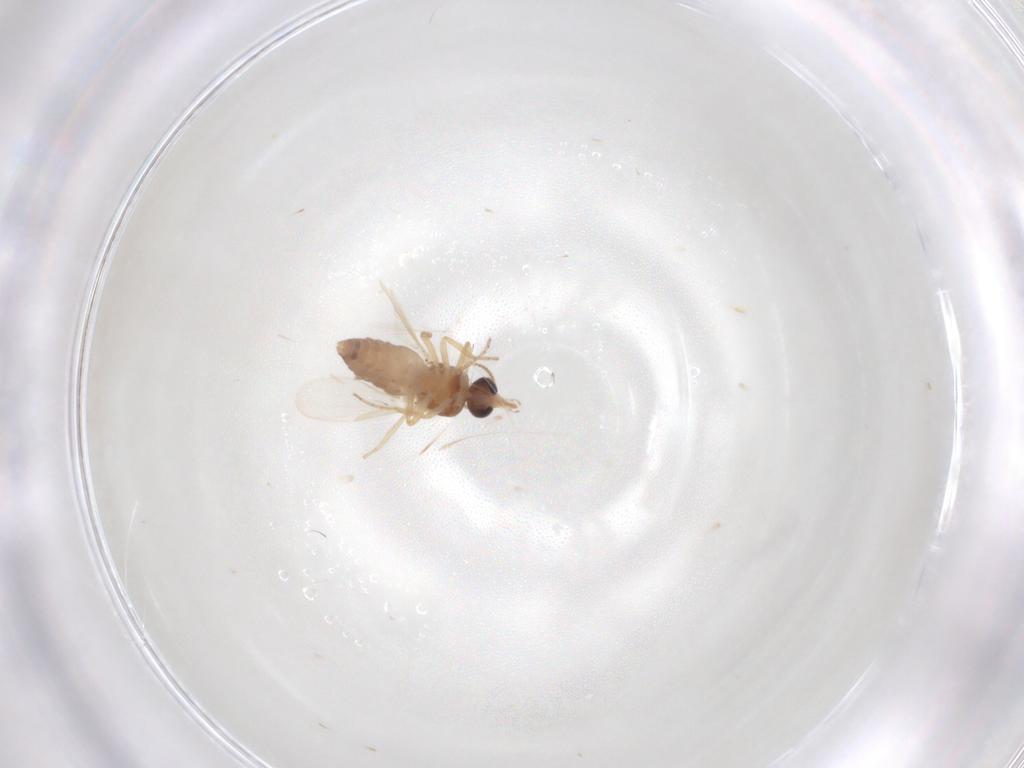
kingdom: Animalia
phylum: Arthropoda
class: Insecta
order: Diptera
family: Ceratopogonidae
